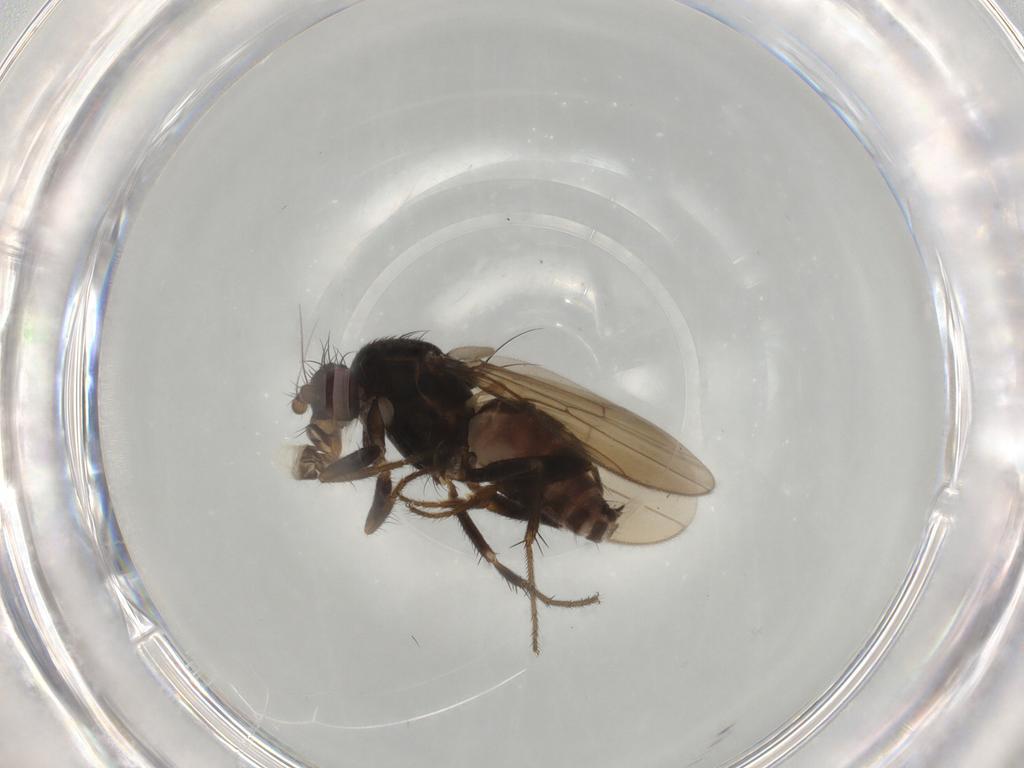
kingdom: Animalia
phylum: Arthropoda
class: Insecta
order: Diptera
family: Sphaeroceridae
